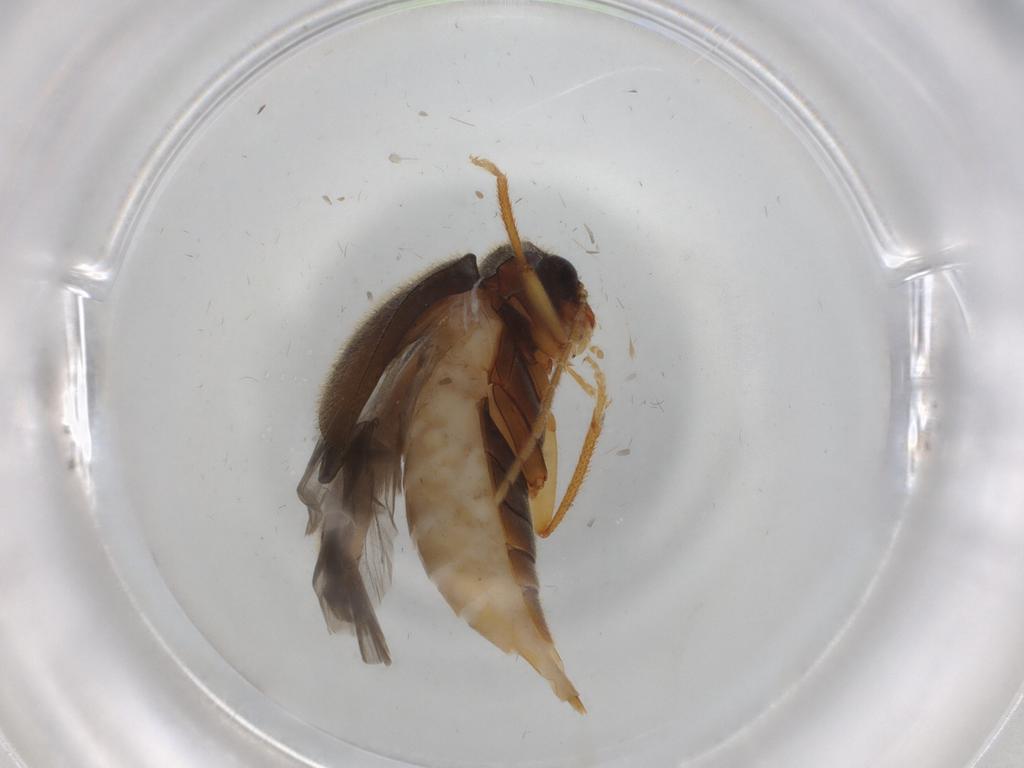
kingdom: Animalia
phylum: Arthropoda
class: Insecta
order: Coleoptera
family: Ptilodactylidae
